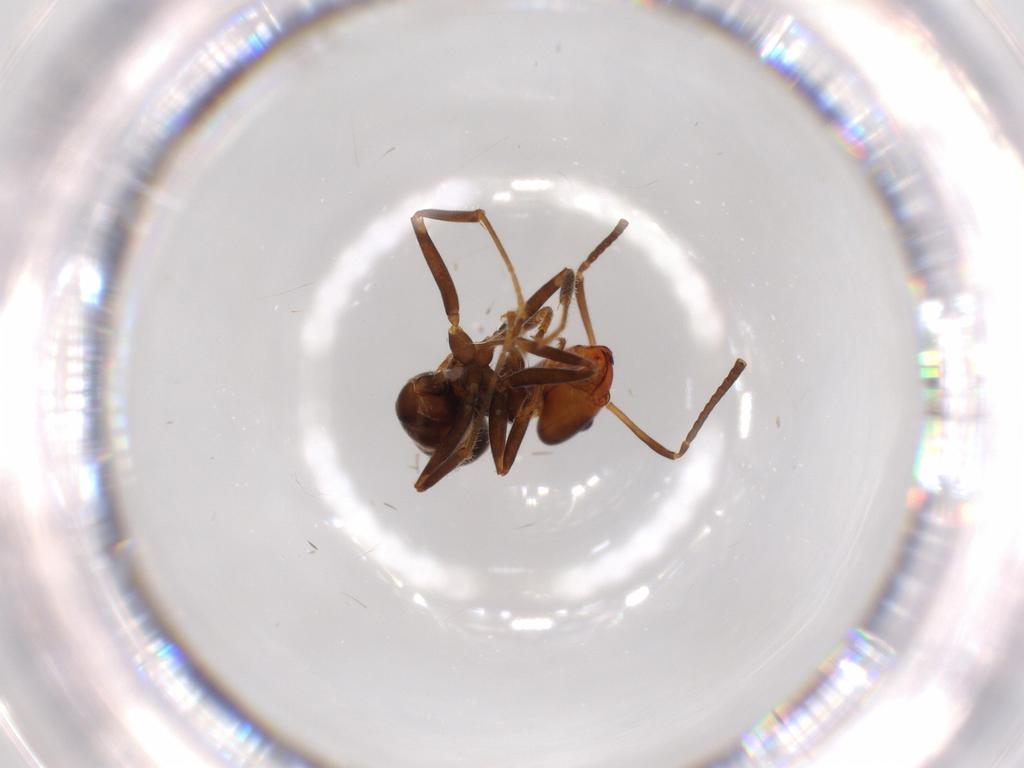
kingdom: Animalia
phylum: Arthropoda
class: Insecta
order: Hymenoptera
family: Formicidae
